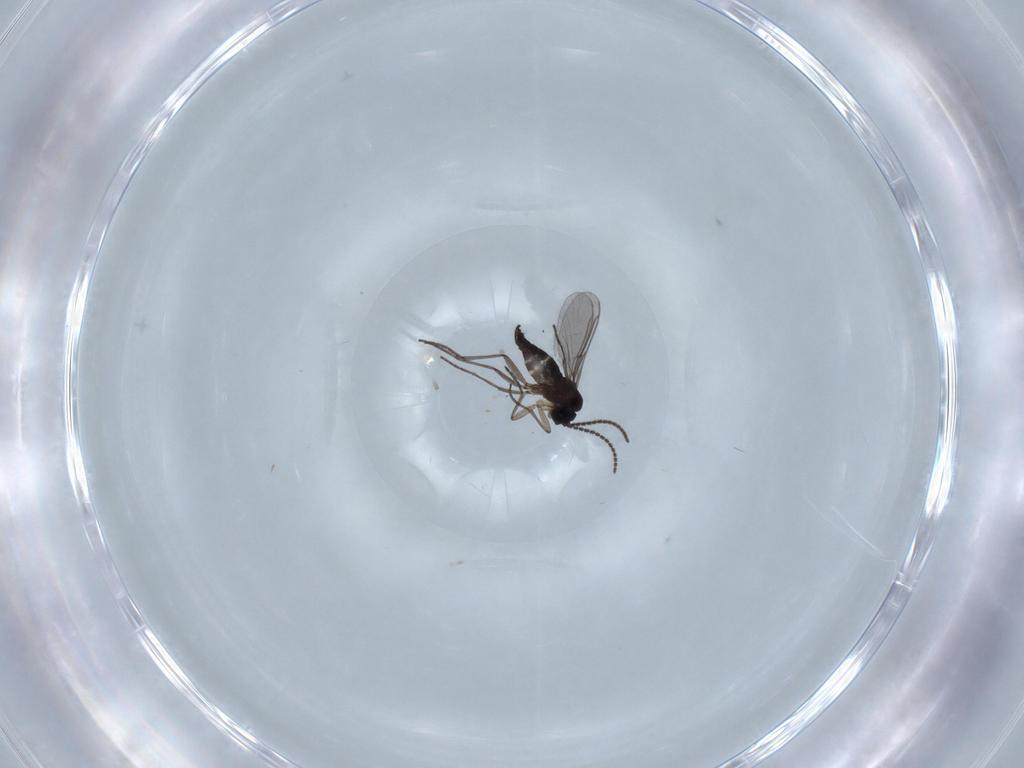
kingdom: Animalia
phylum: Arthropoda
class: Insecta
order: Diptera
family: Sciaridae
